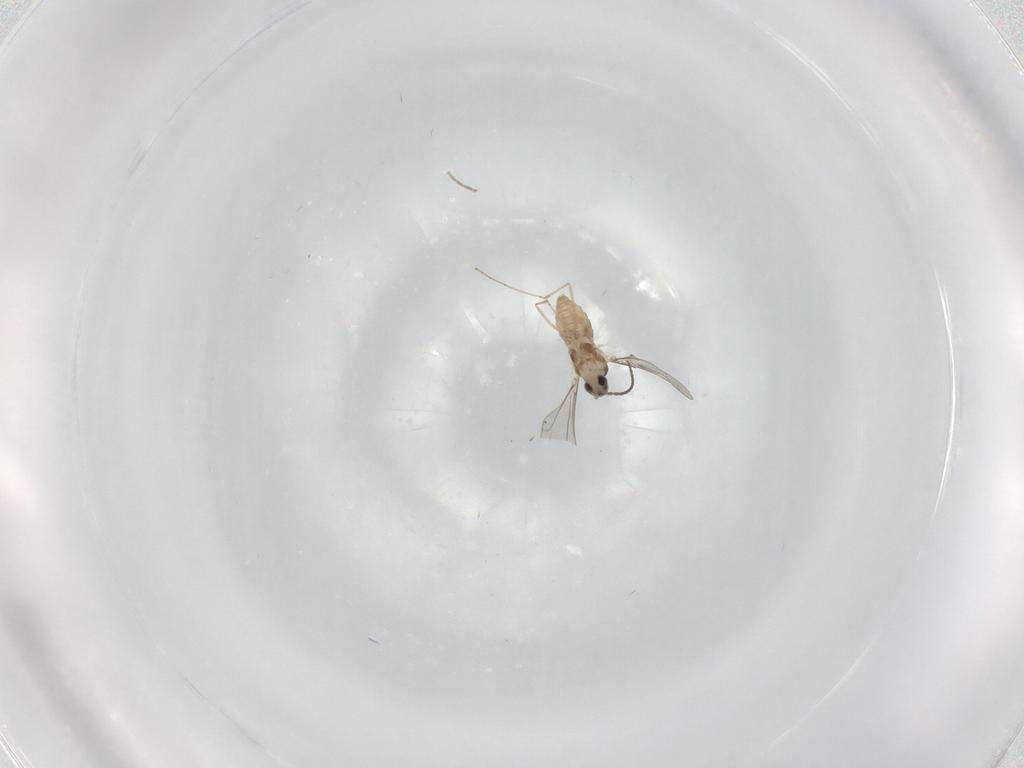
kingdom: Animalia
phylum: Arthropoda
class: Insecta
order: Diptera
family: Cecidomyiidae
